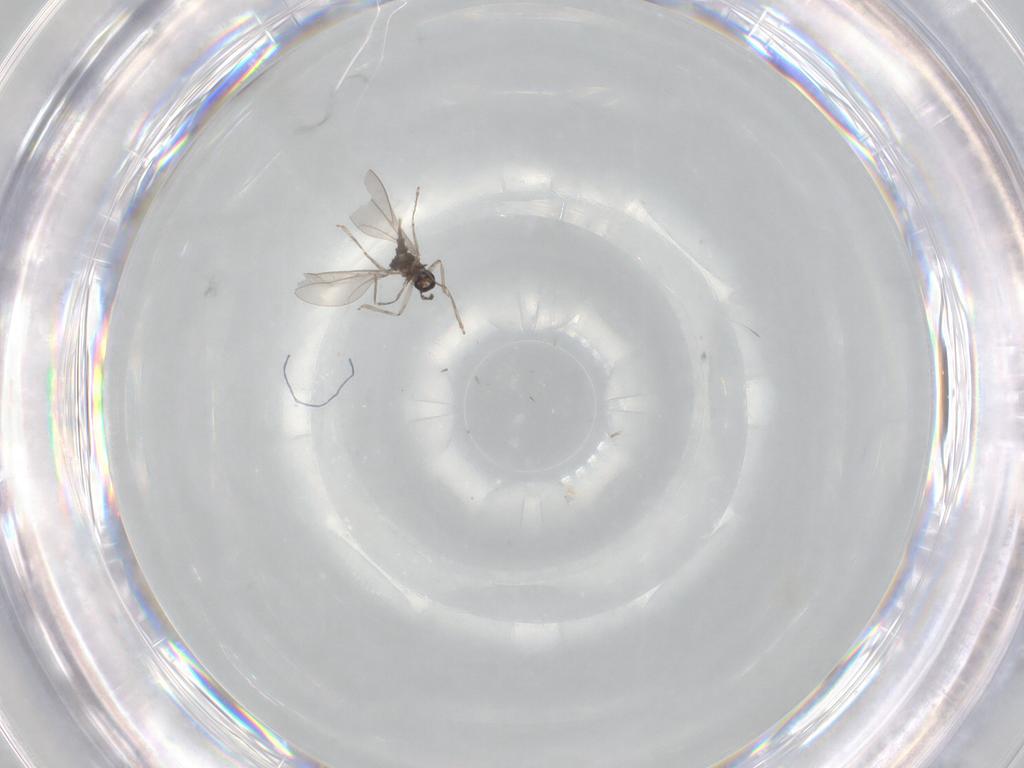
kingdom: Animalia
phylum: Arthropoda
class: Insecta
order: Diptera
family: Cecidomyiidae
